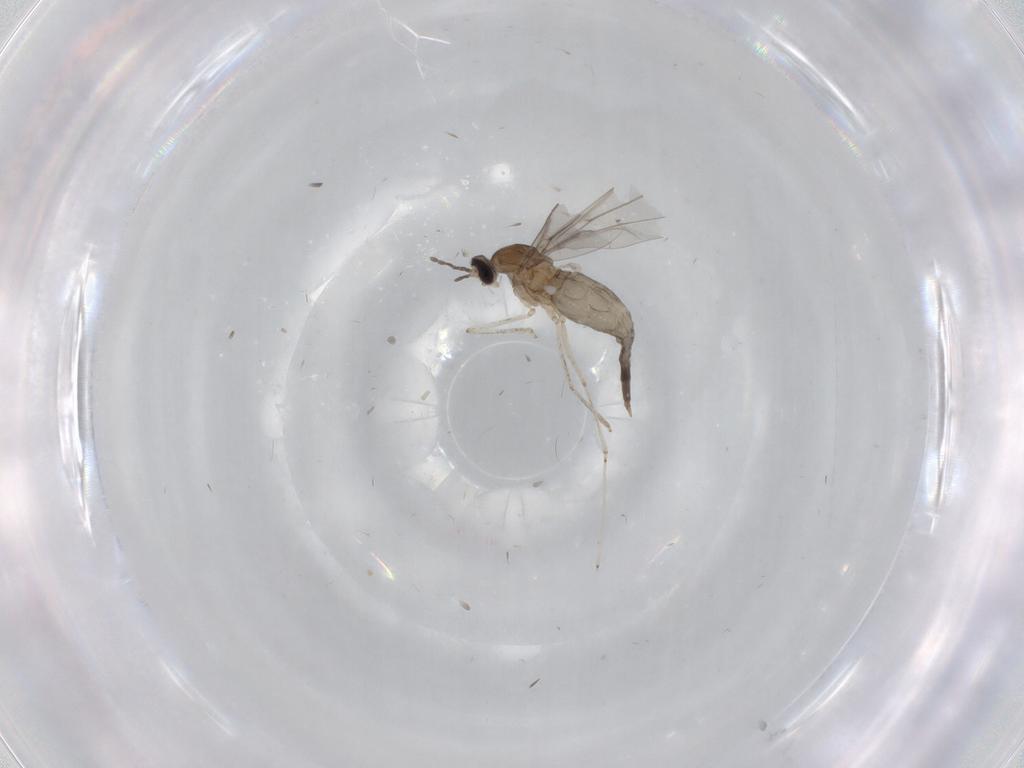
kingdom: Animalia
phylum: Arthropoda
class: Insecta
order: Diptera
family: Cecidomyiidae
